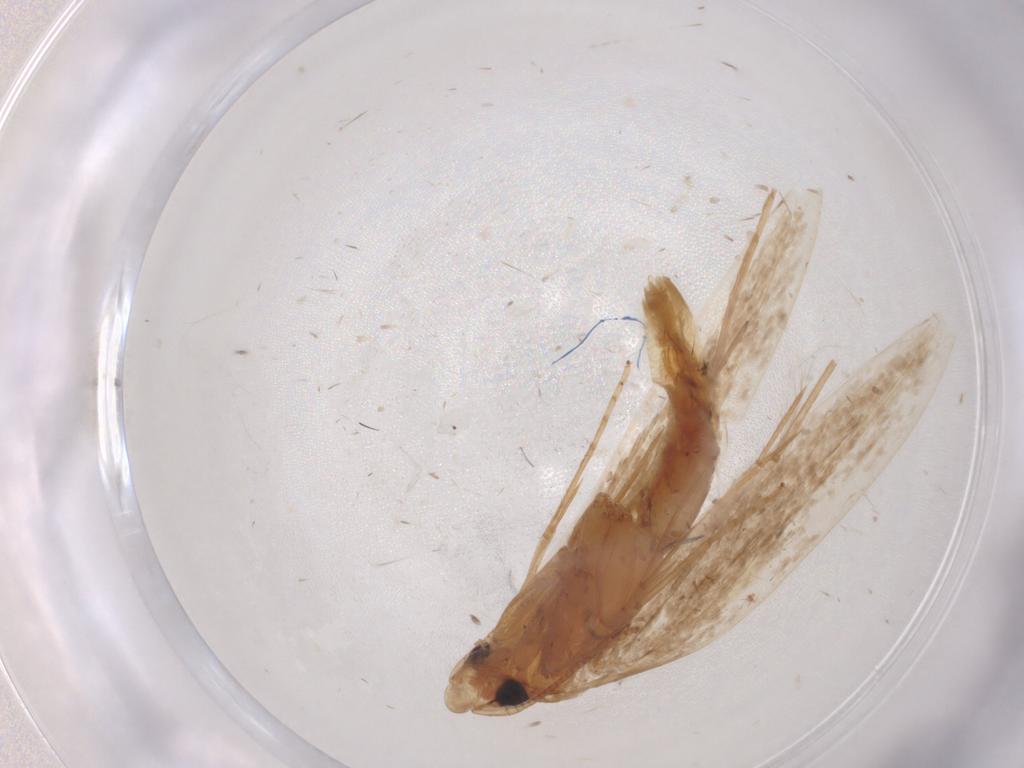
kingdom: Animalia
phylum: Arthropoda
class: Insecta
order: Lepidoptera
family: Tineidae
